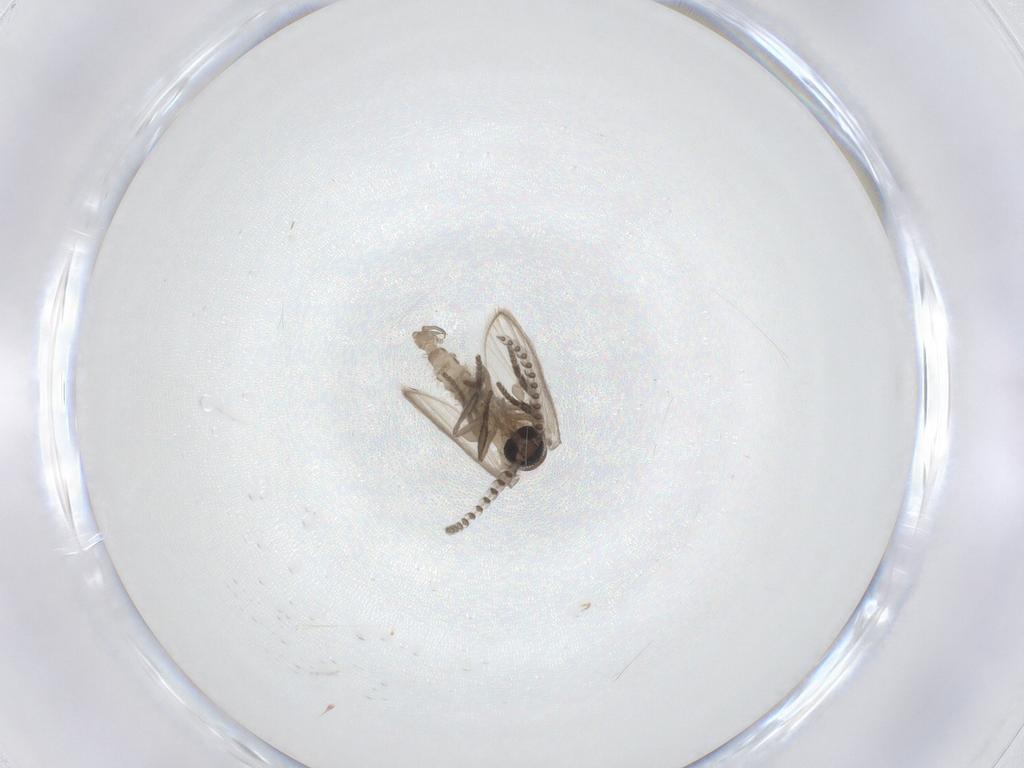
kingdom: Animalia
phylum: Arthropoda
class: Insecta
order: Diptera
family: Psychodidae
